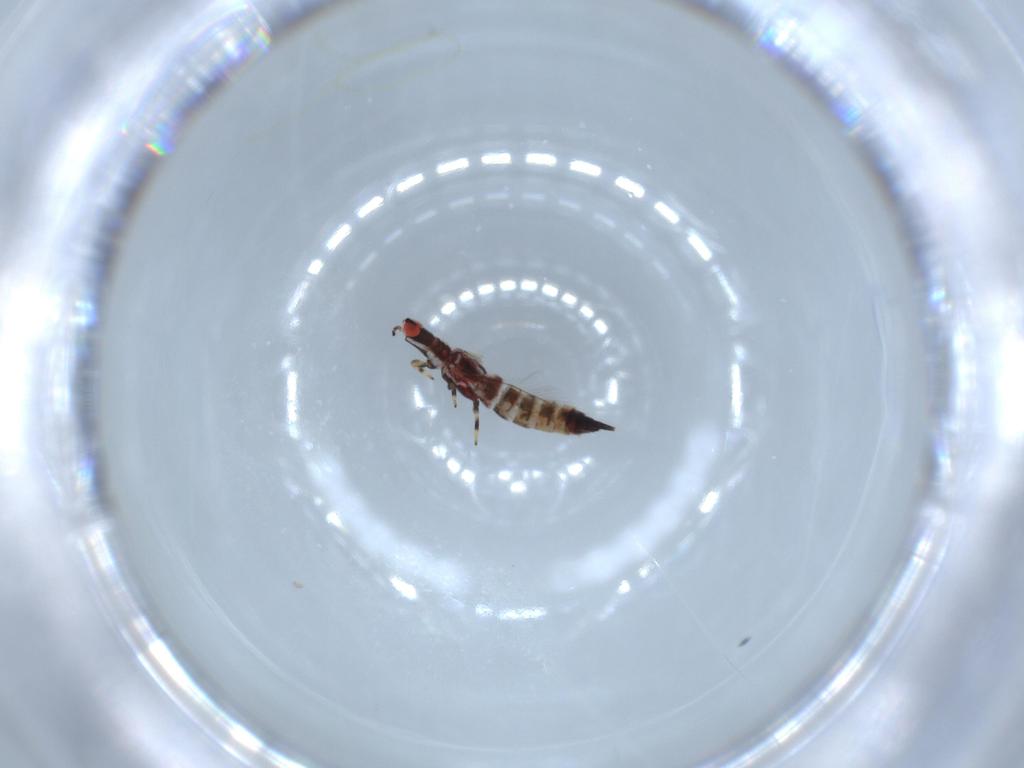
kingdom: Animalia
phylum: Arthropoda
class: Insecta
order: Thysanoptera
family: Phlaeothripidae
